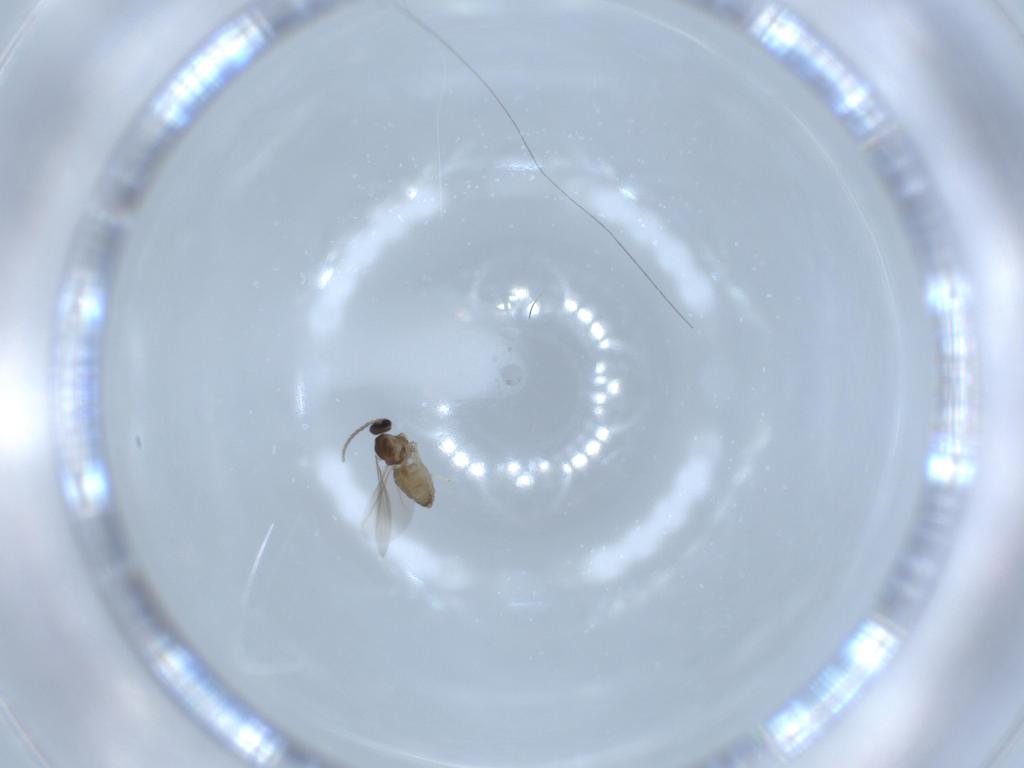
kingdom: Animalia
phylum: Arthropoda
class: Insecta
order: Diptera
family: Cecidomyiidae
